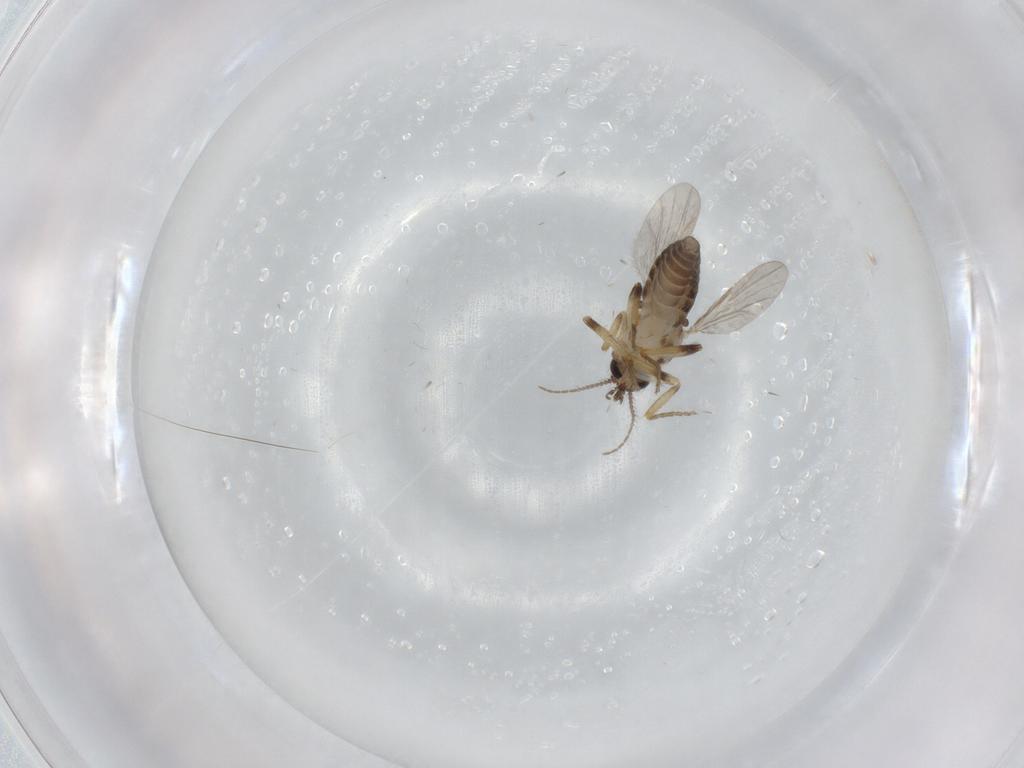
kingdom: Animalia
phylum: Arthropoda
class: Insecta
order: Diptera
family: Ceratopogonidae
